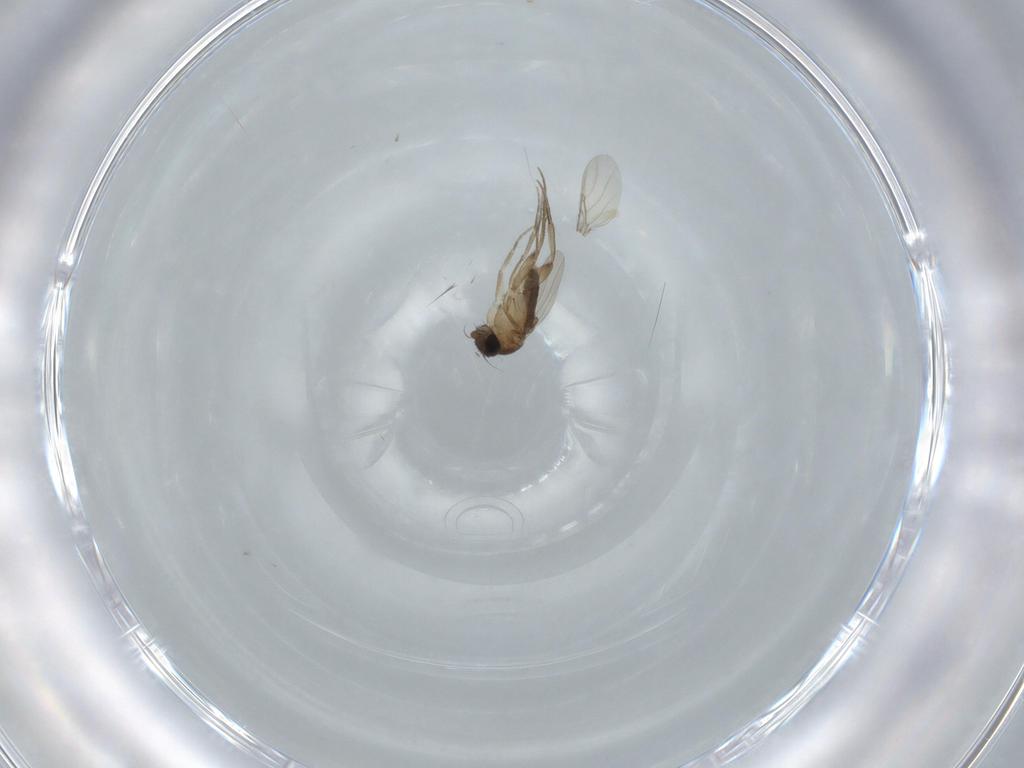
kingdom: Animalia
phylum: Arthropoda
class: Insecta
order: Diptera
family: Phoridae
